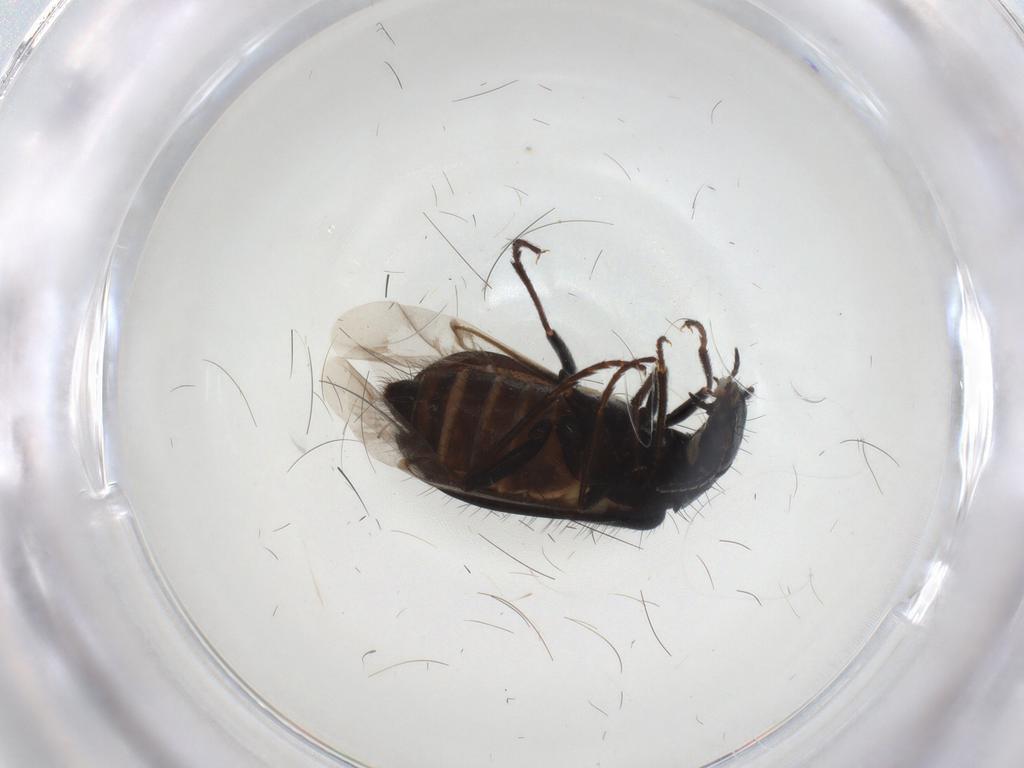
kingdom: Animalia
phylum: Arthropoda
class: Insecta
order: Coleoptera
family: Melyridae
